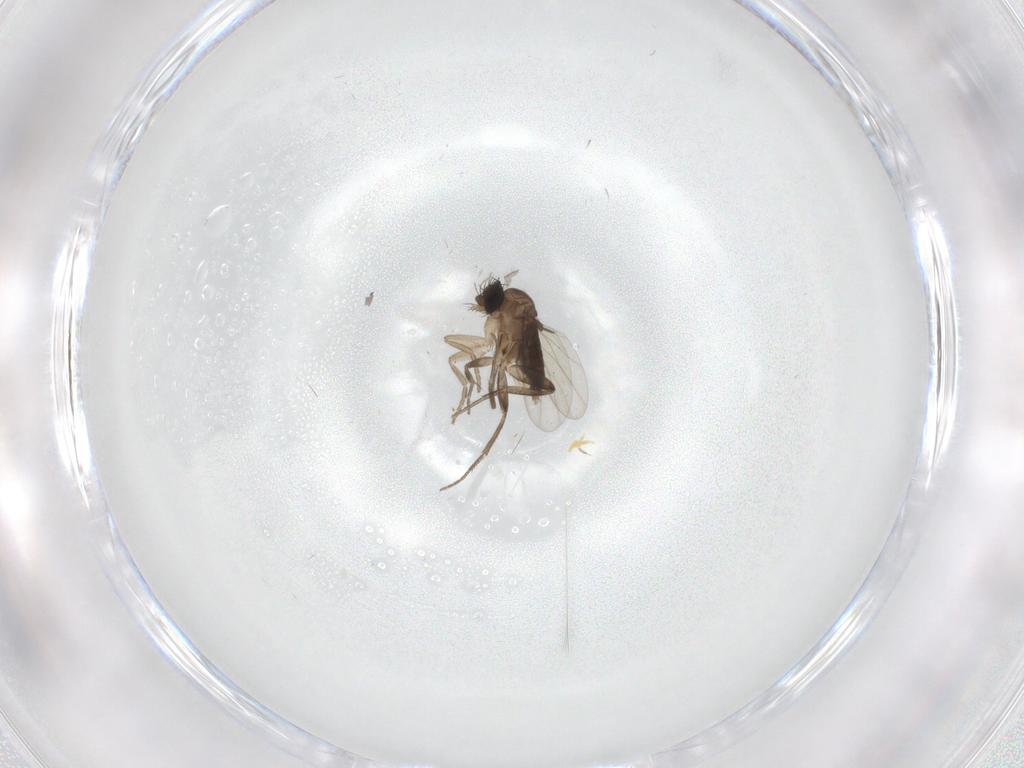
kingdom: Animalia
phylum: Arthropoda
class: Insecta
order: Diptera
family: Phoridae
